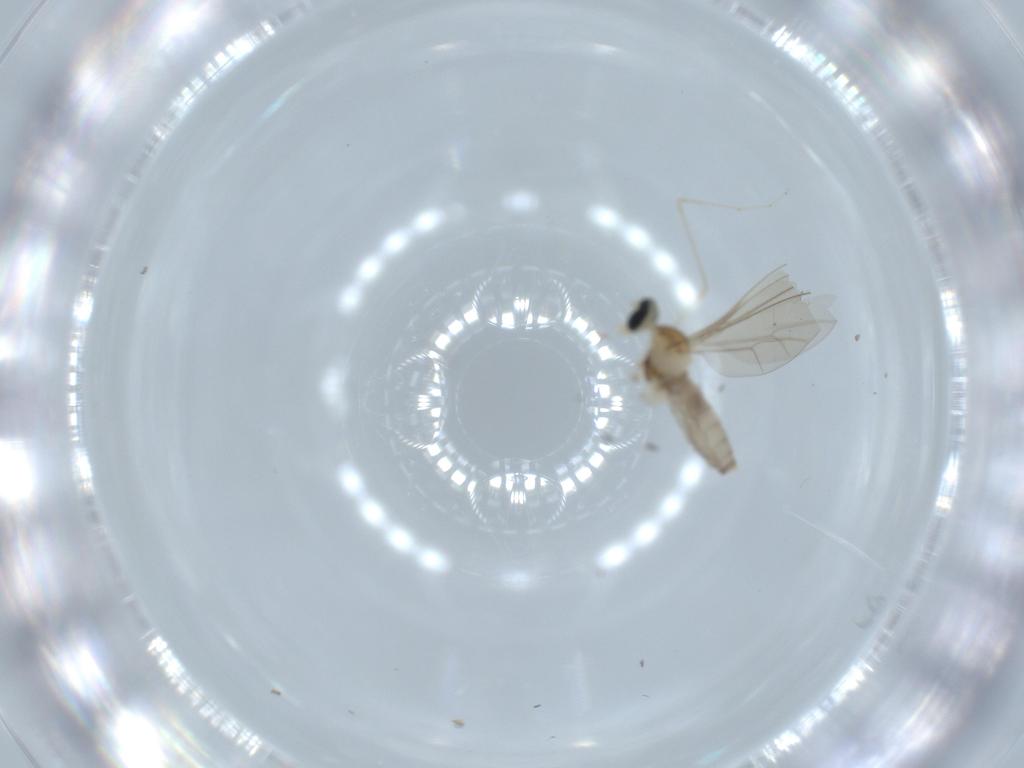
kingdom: Animalia
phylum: Arthropoda
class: Insecta
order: Diptera
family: Cecidomyiidae
